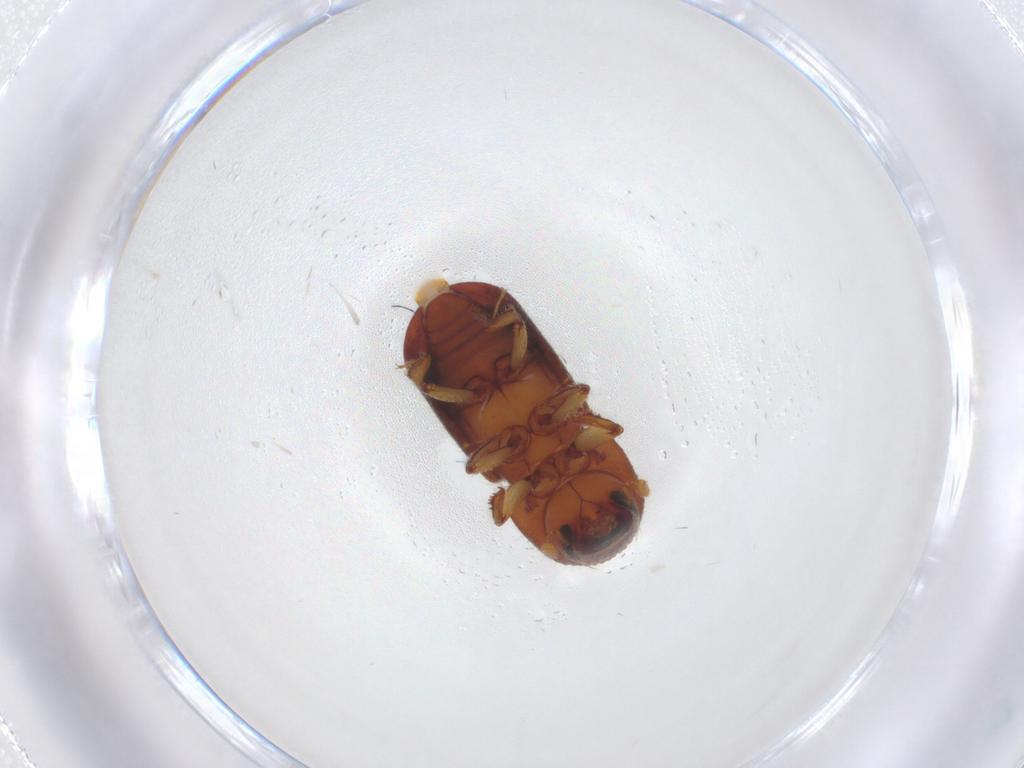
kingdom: Animalia
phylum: Arthropoda
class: Insecta
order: Coleoptera
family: Curculionidae
